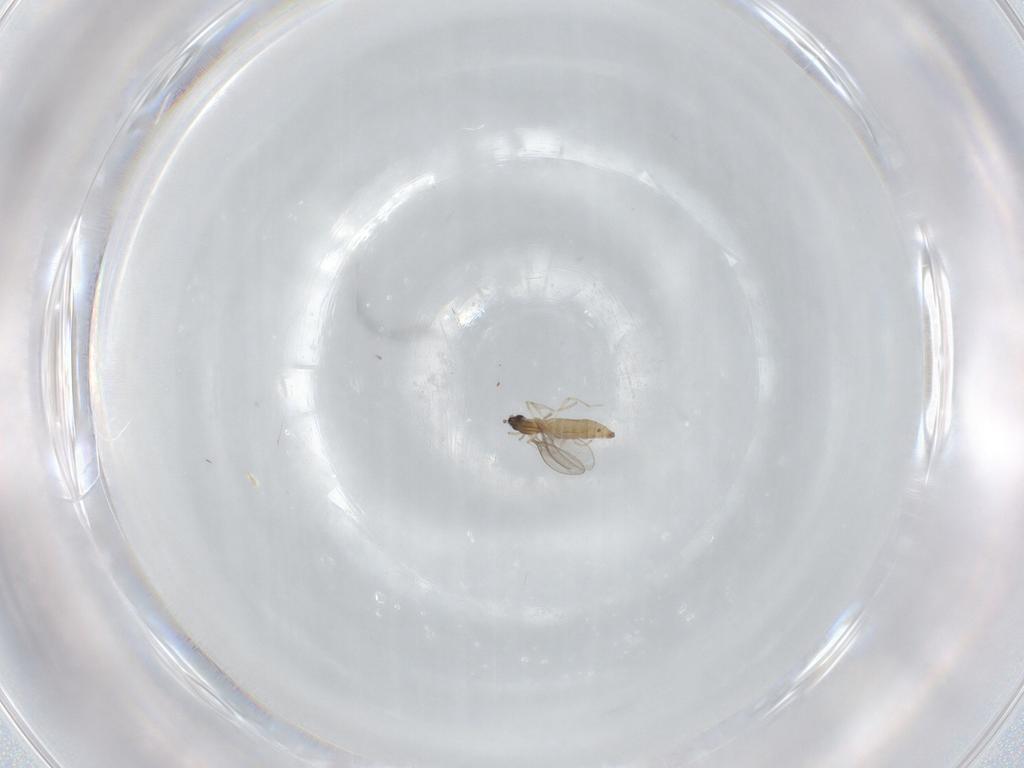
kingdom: Animalia
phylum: Arthropoda
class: Insecta
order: Diptera
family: Cecidomyiidae
